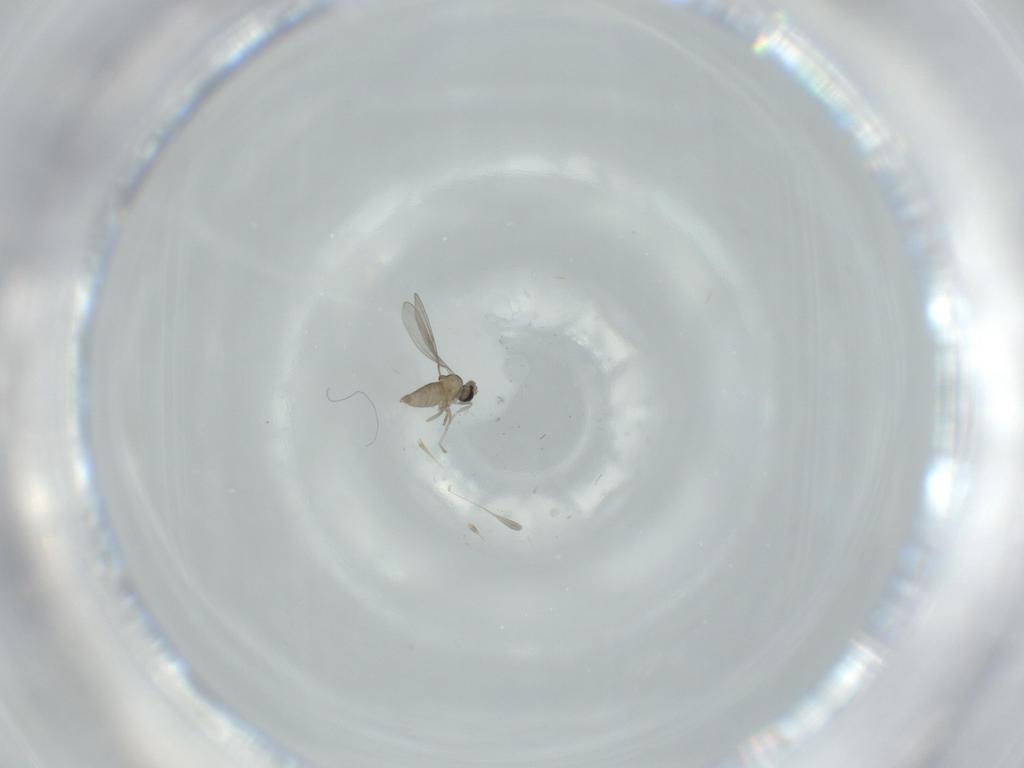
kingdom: Animalia
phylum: Arthropoda
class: Insecta
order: Diptera
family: Cecidomyiidae
